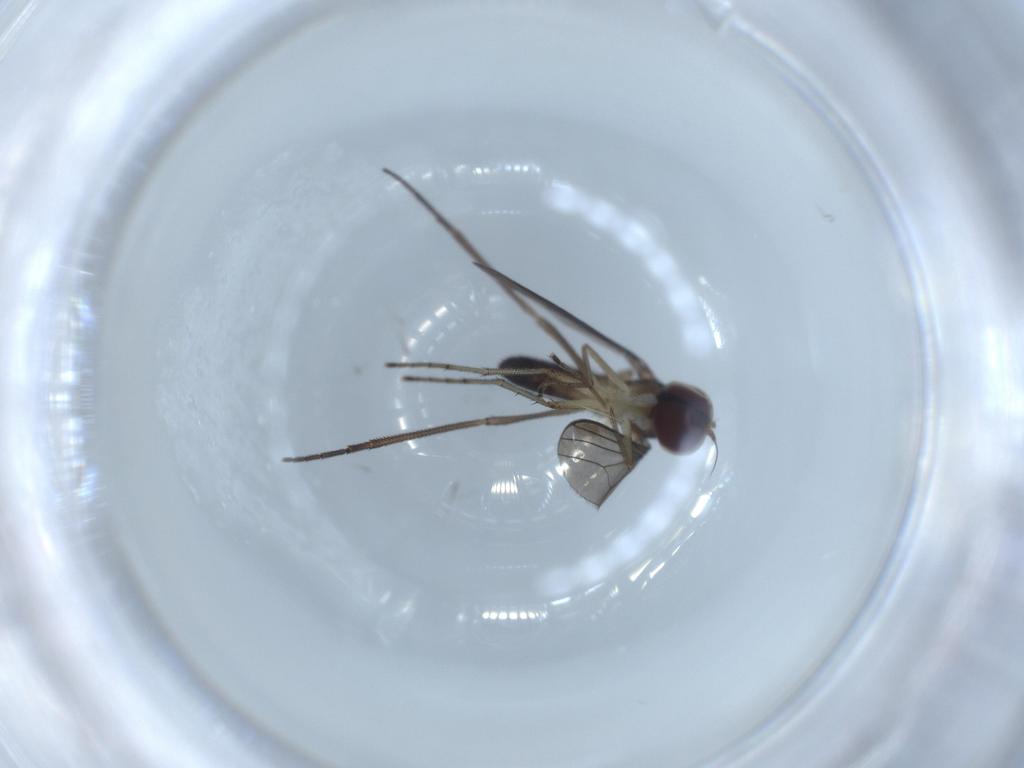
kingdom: Animalia
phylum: Arthropoda
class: Insecta
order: Diptera
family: Dolichopodidae
